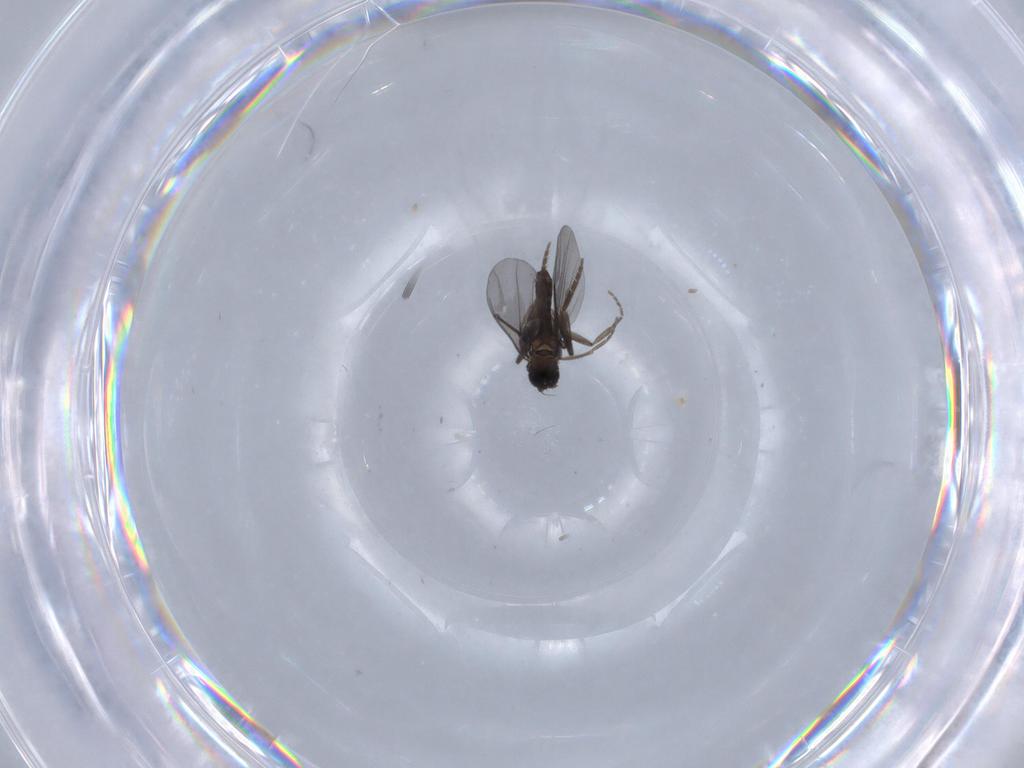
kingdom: Animalia
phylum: Arthropoda
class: Insecta
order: Diptera
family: Phoridae
